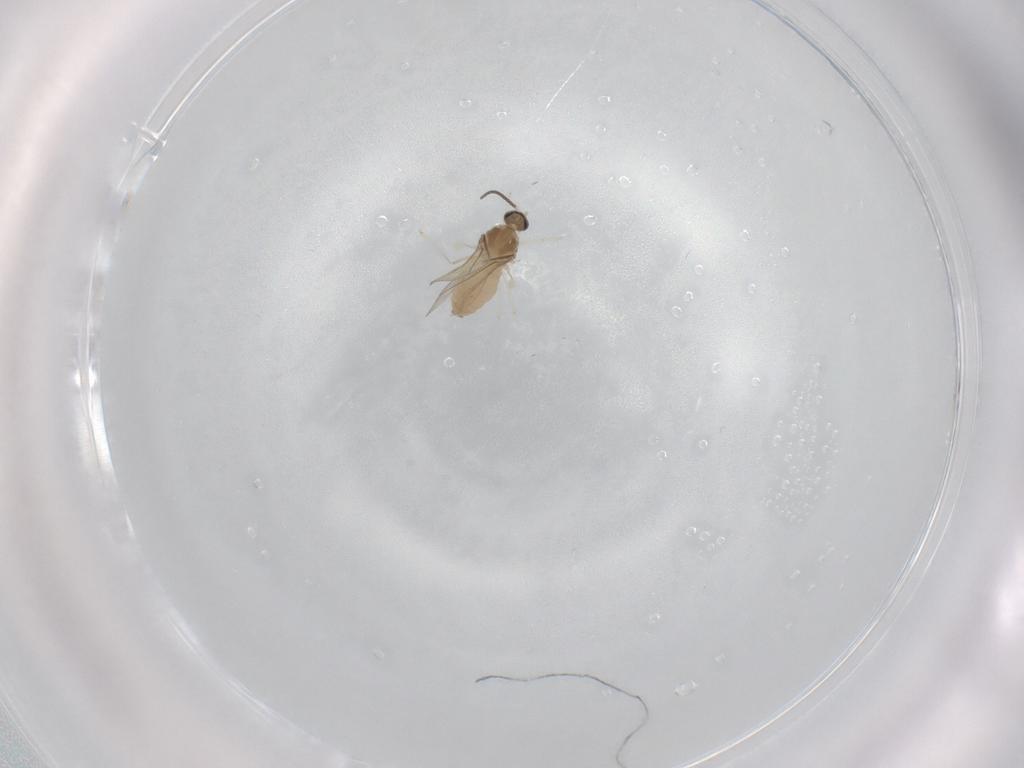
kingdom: Animalia
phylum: Arthropoda
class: Insecta
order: Diptera
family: Cecidomyiidae
